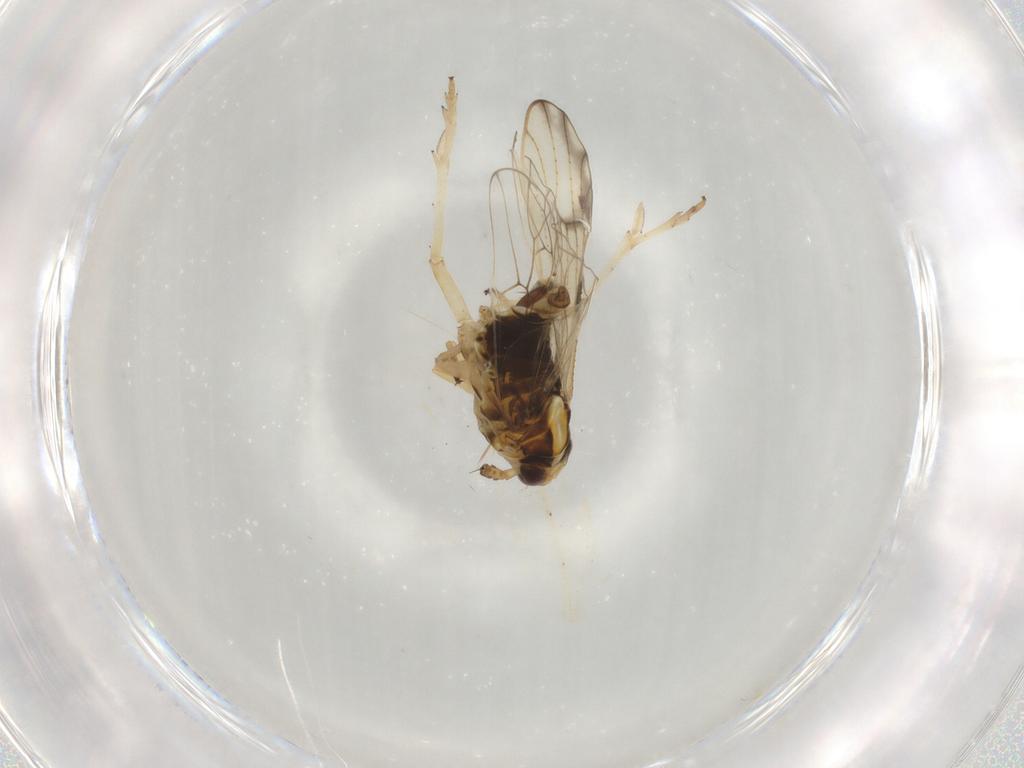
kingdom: Animalia
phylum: Arthropoda
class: Insecta
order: Hemiptera
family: Delphacidae
